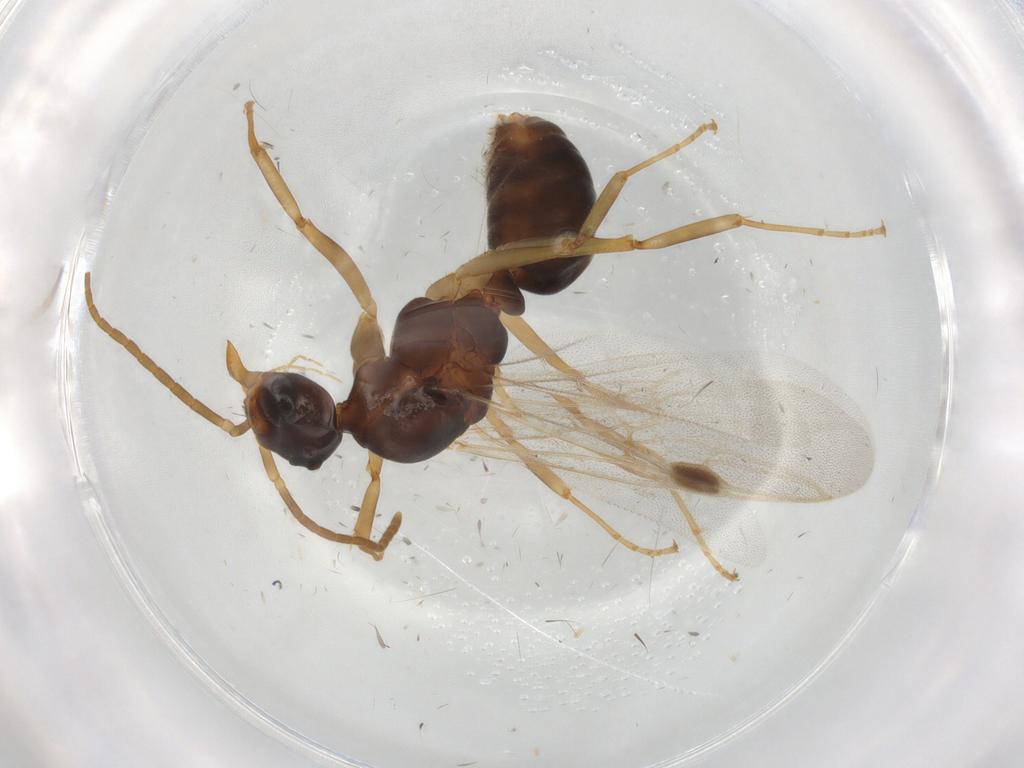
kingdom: Animalia
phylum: Arthropoda
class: Insecta
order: Hymenoptera
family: Formicidae
